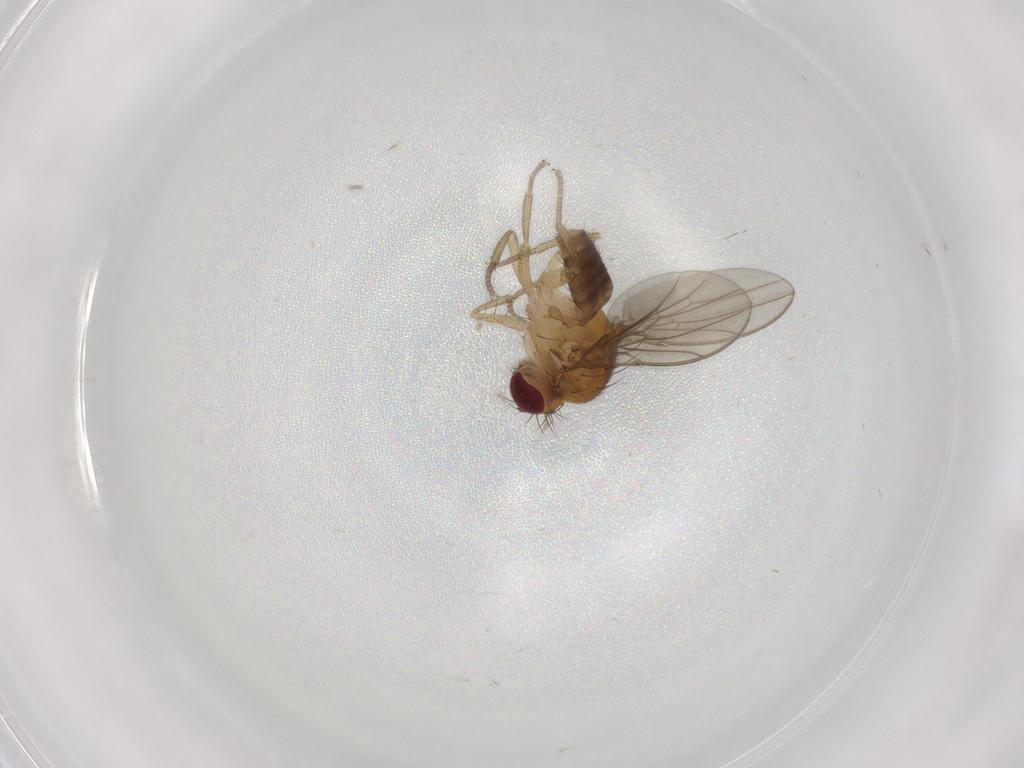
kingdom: Animalia
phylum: Arthropoda
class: Insecta
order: Diptera
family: Drosophilidae
